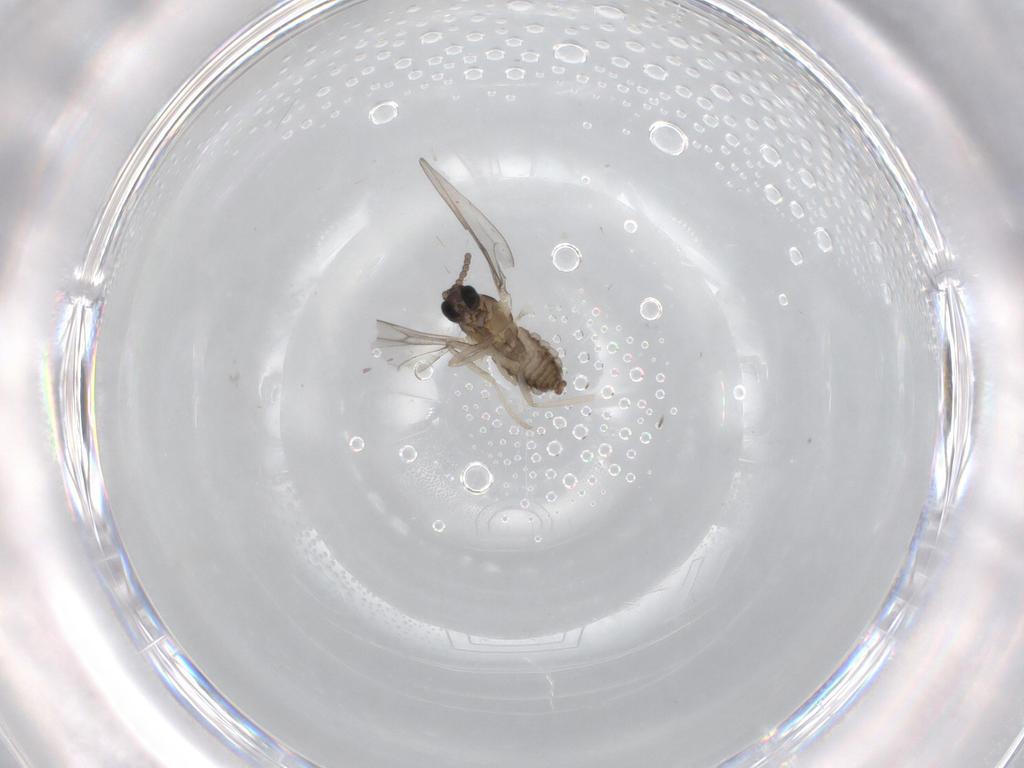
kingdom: Animalia
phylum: Arthropoda
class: Insecta
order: Diptera
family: Cecidomyiidae
